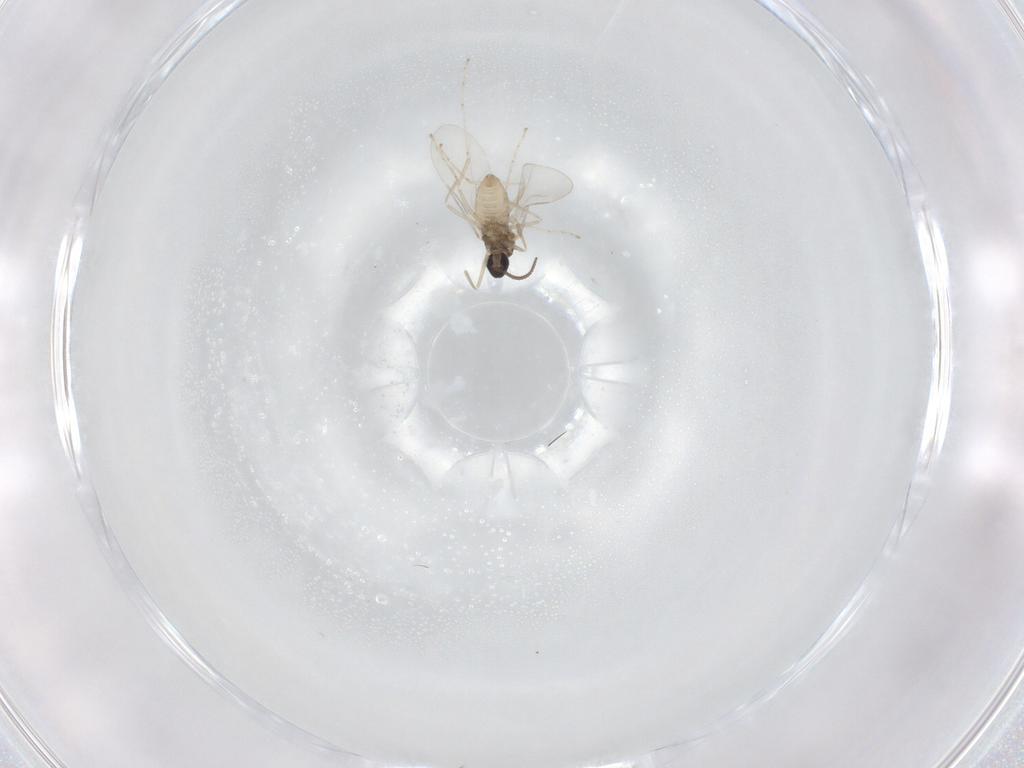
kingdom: Animalia
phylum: Arthropoda
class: Insecta
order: Diptera
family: Cecidomyiidae
